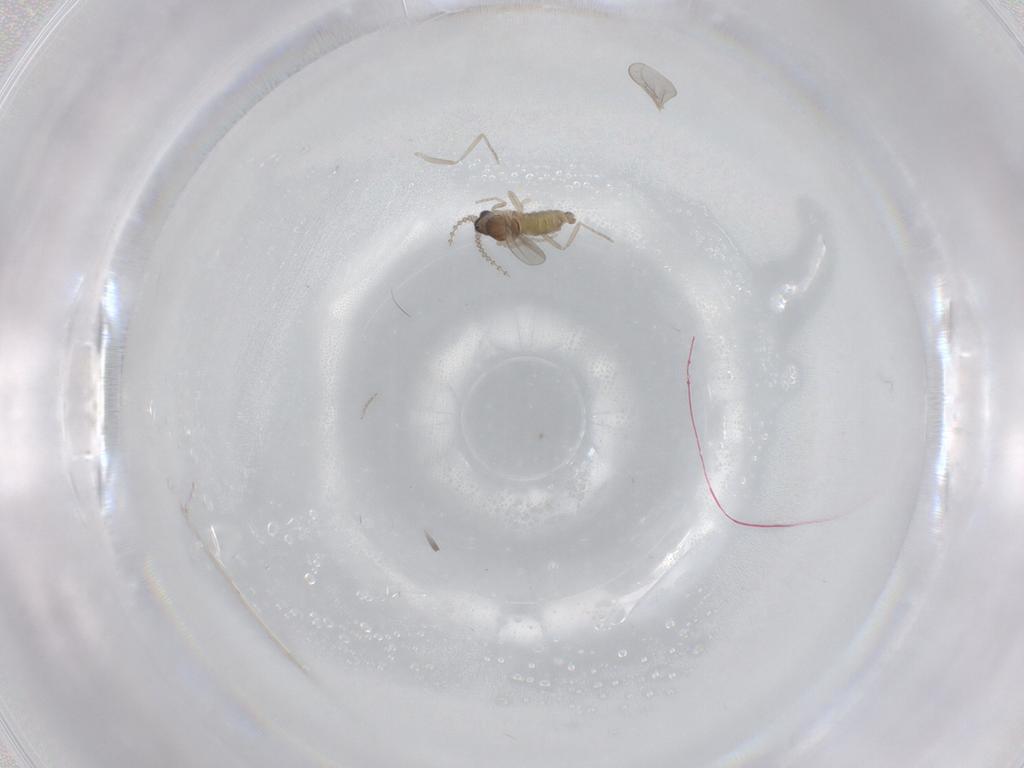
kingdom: Animalia
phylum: Arthropoda
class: Insecta
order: Diptera
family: Cecidomyiidae
